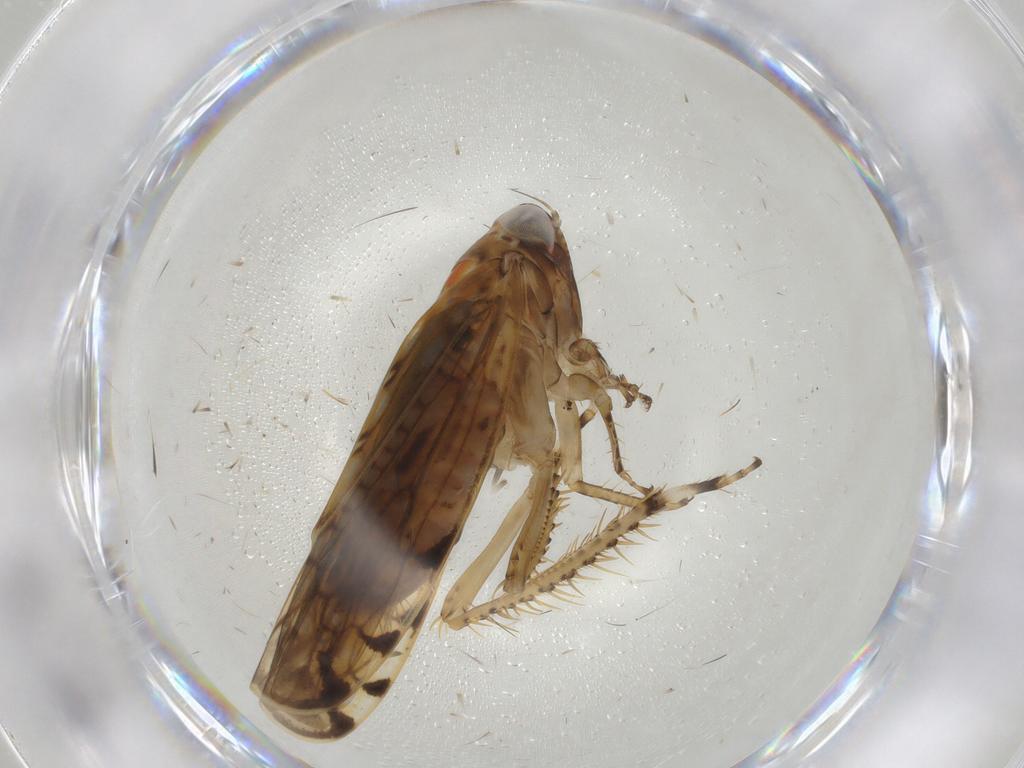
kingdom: Animalia
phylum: Arthropoda
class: Insecta
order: Hemiptera
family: Cicadellidae
